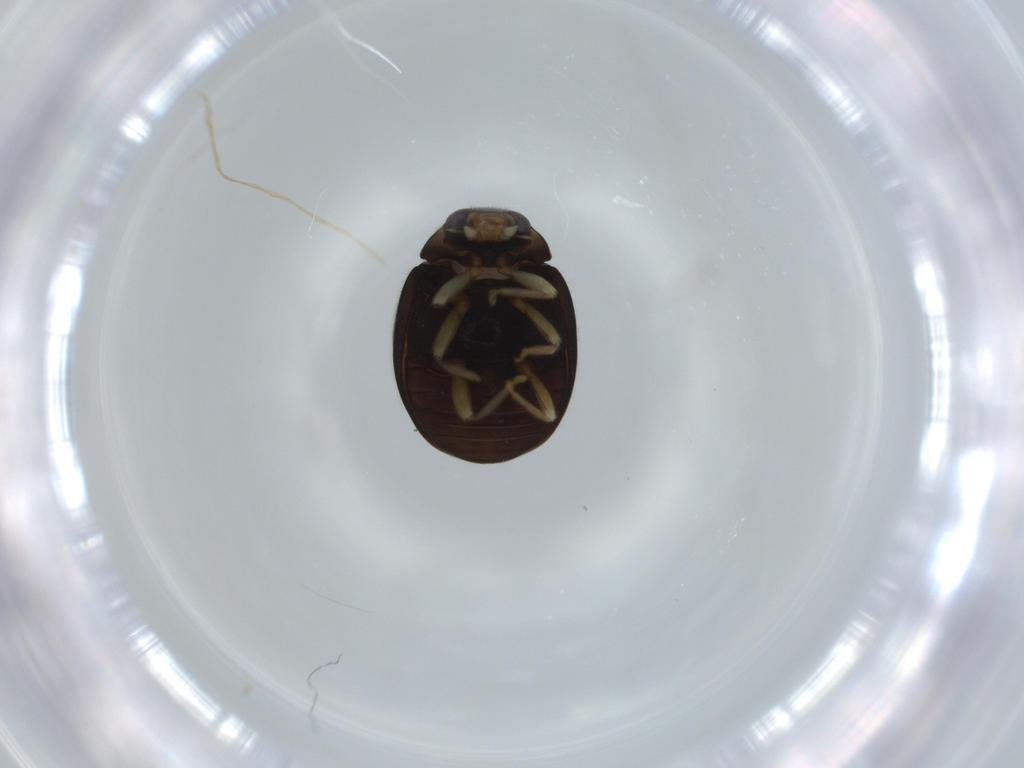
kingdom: Animalia
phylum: Arthropoda
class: Insecta
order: Coleoptera
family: Coccinellidae
